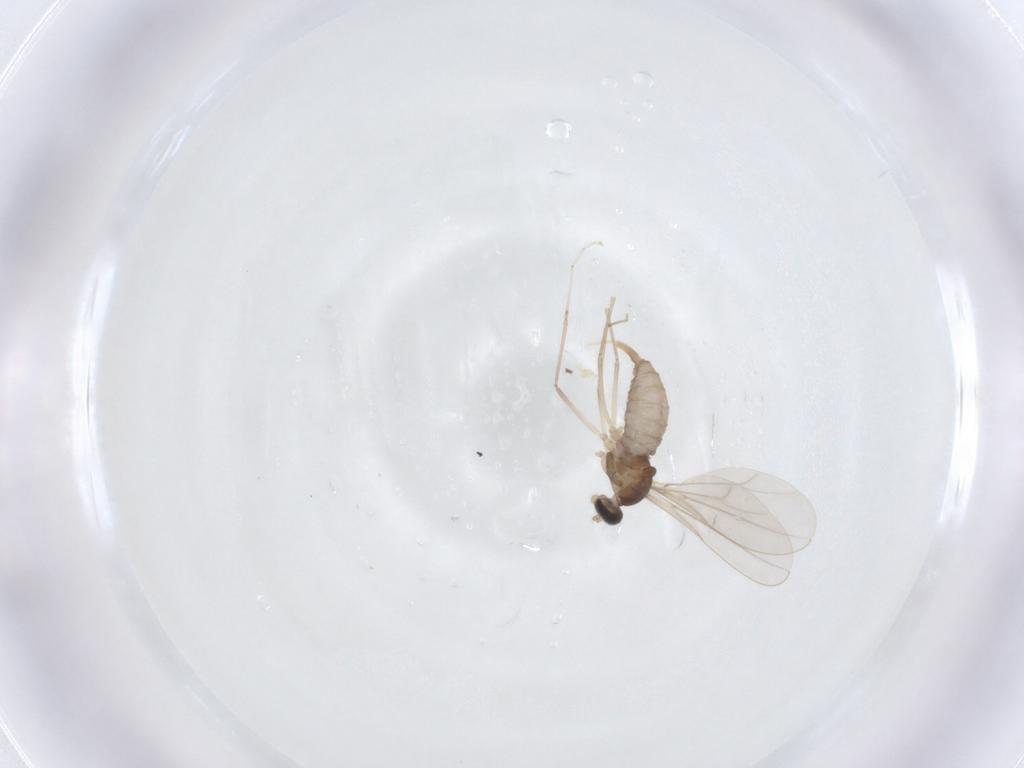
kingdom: Animalia
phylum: Arthropoda
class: Insecta
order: Diptera
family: Cecidomyiidae
